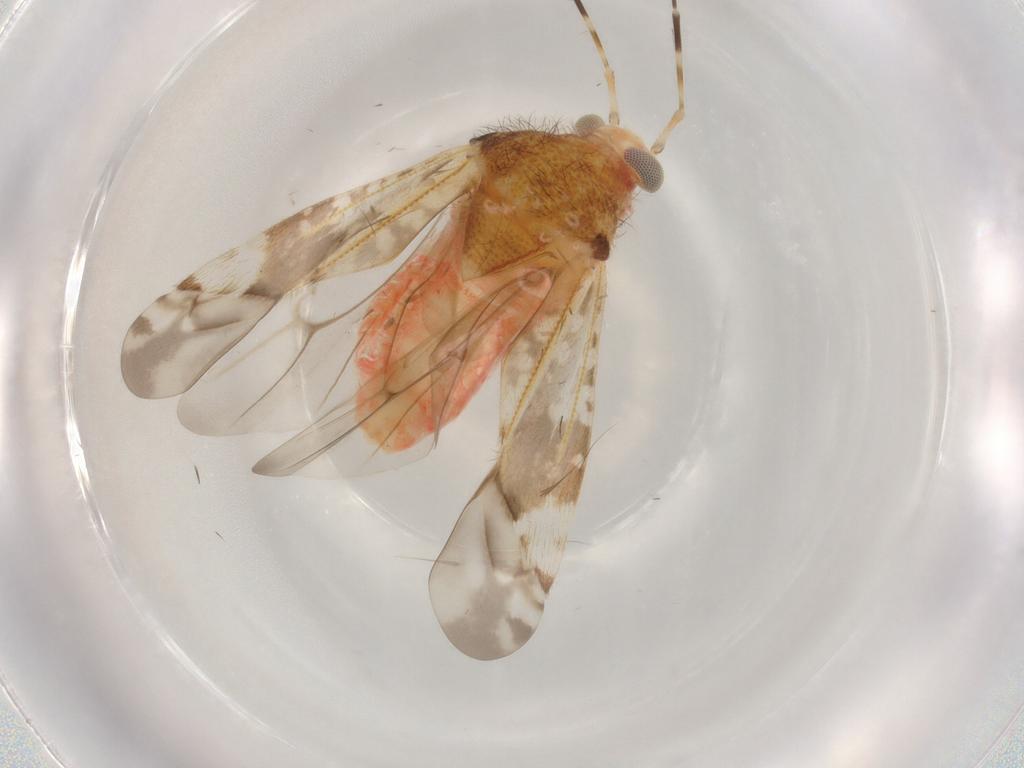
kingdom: Animalia
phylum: Arthropoda
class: Insecta
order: Hemiptera
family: Miridae
